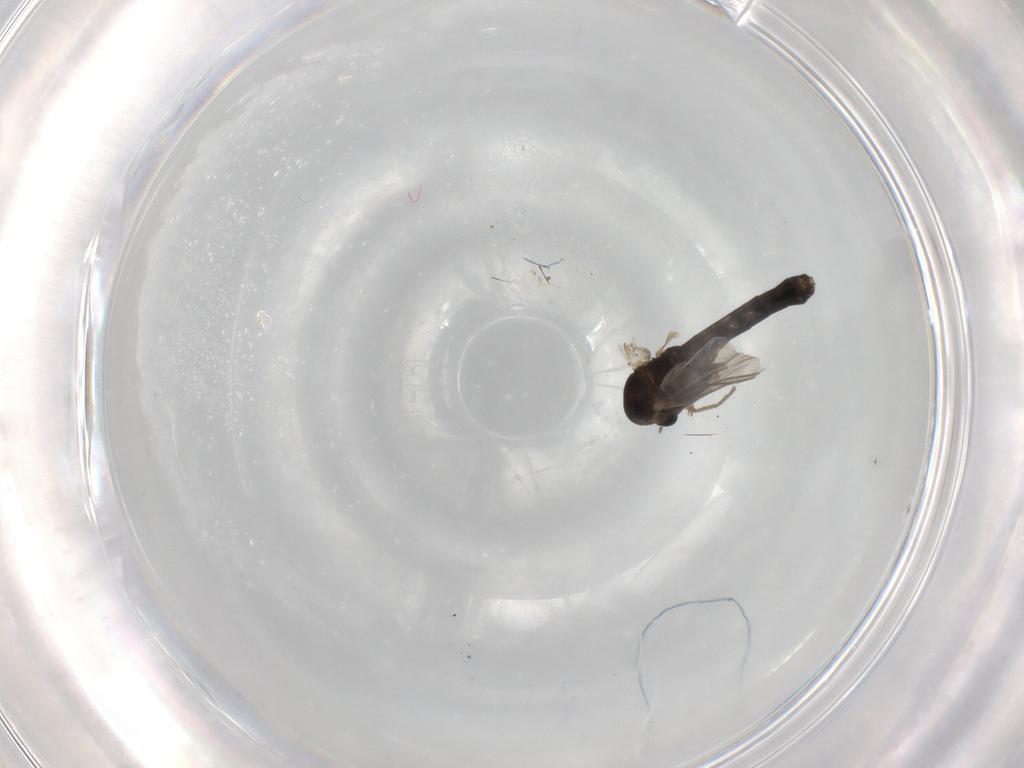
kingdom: Animalia
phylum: Arthropoda
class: Insecta
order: Diptera
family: Chironomidae
